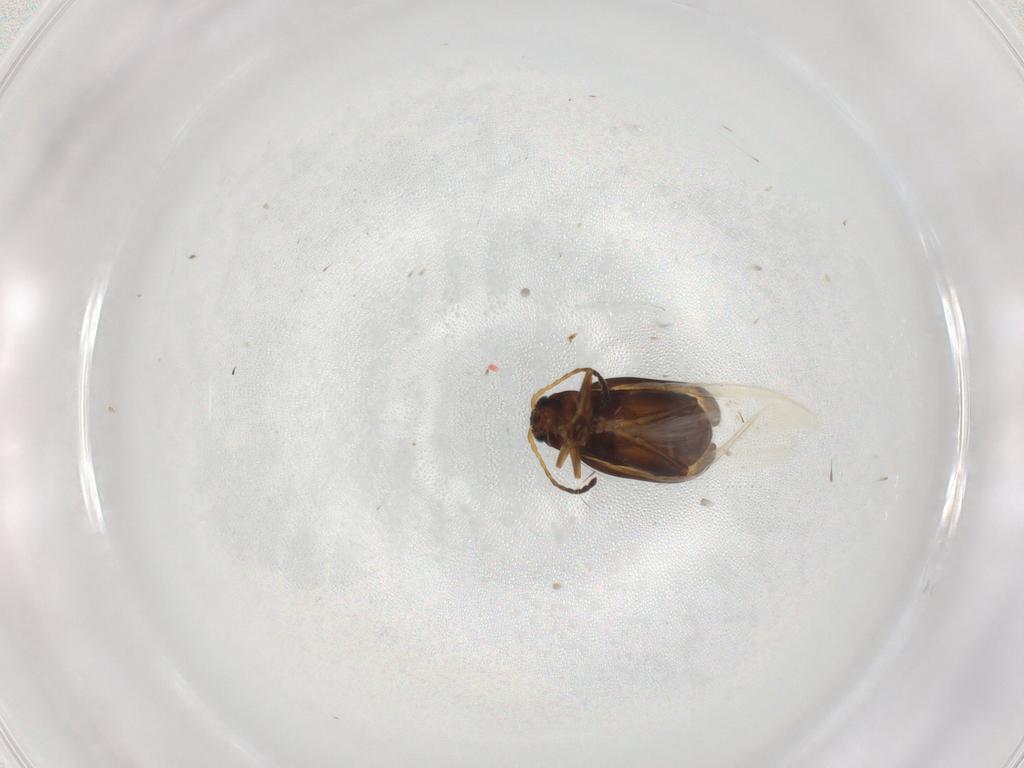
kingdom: Animalia
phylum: Arthropoda
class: Insecta
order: Coleoptera
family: Chrysomelidae
